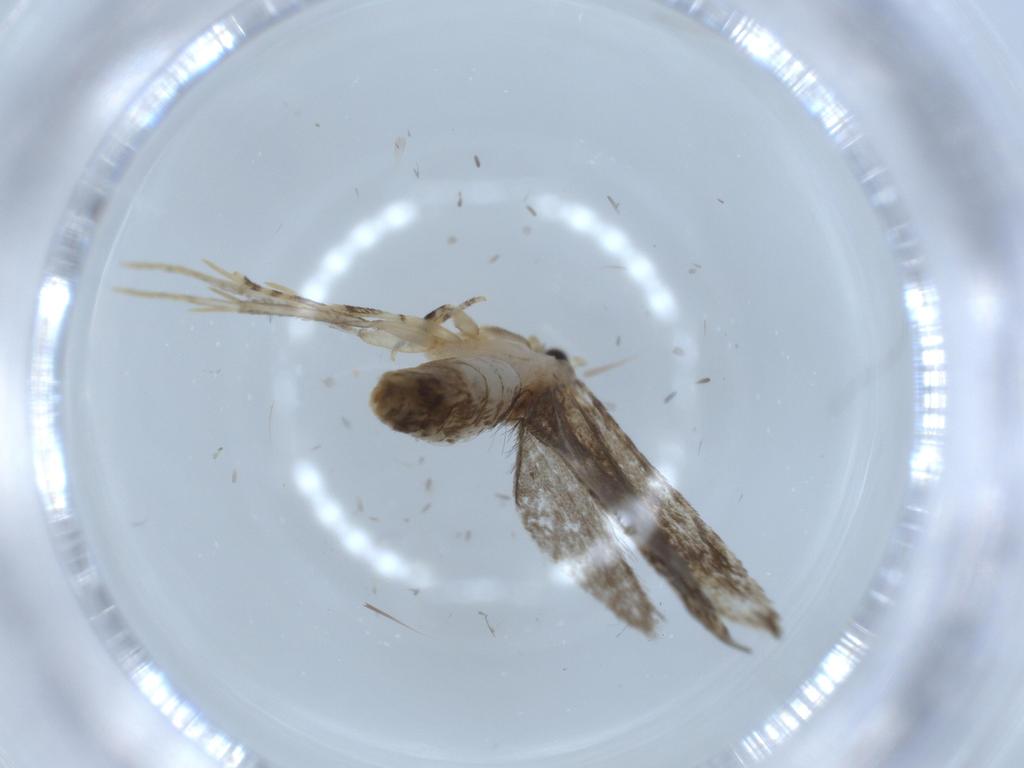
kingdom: Animalia
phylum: Arthropoda
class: Insecta
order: Lepidoptera
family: Tineidae
